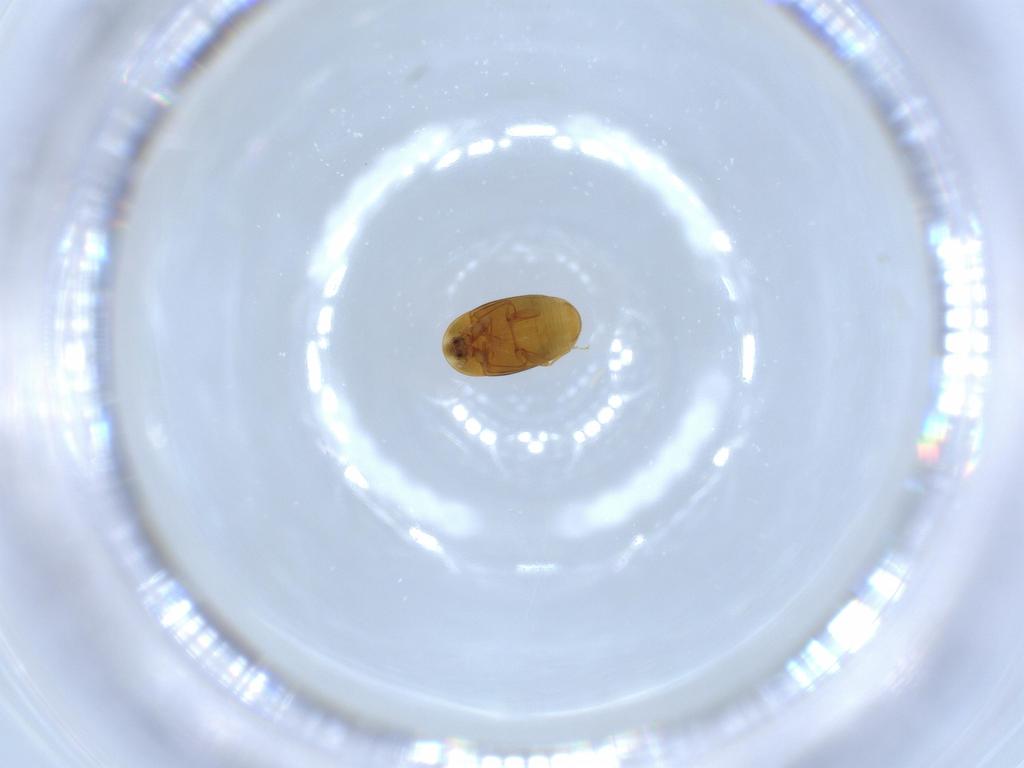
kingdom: Animalia
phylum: Arthropoda
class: Insecta
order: Coleoptera
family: Corylophidae
